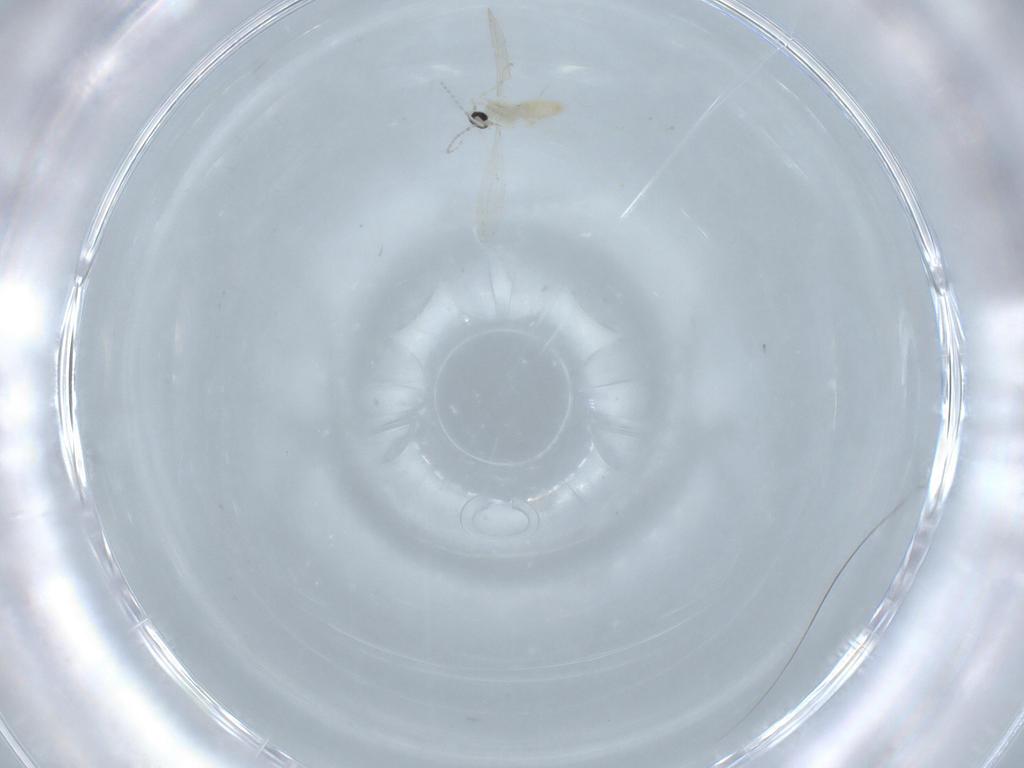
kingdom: Animalia
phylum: Arthropoda
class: Insecta
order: Diptera
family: Cecidomyiidae
